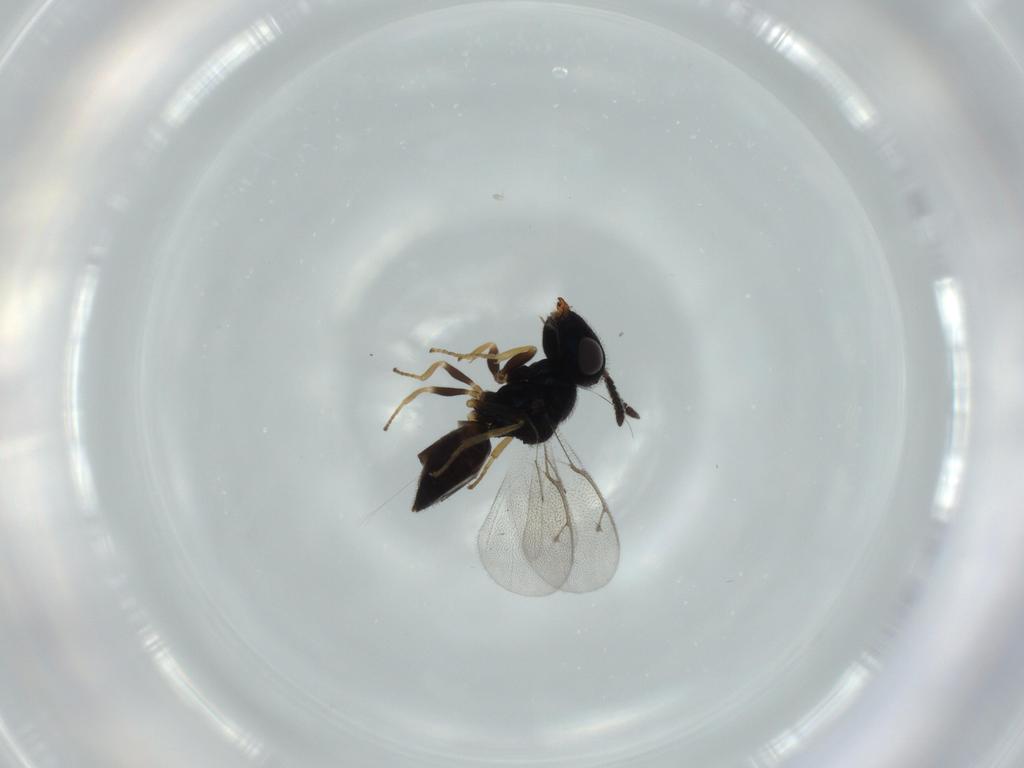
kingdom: Animalia
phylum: Arthropoda
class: Insecta
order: Hymenoptera
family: Pteromalidae
